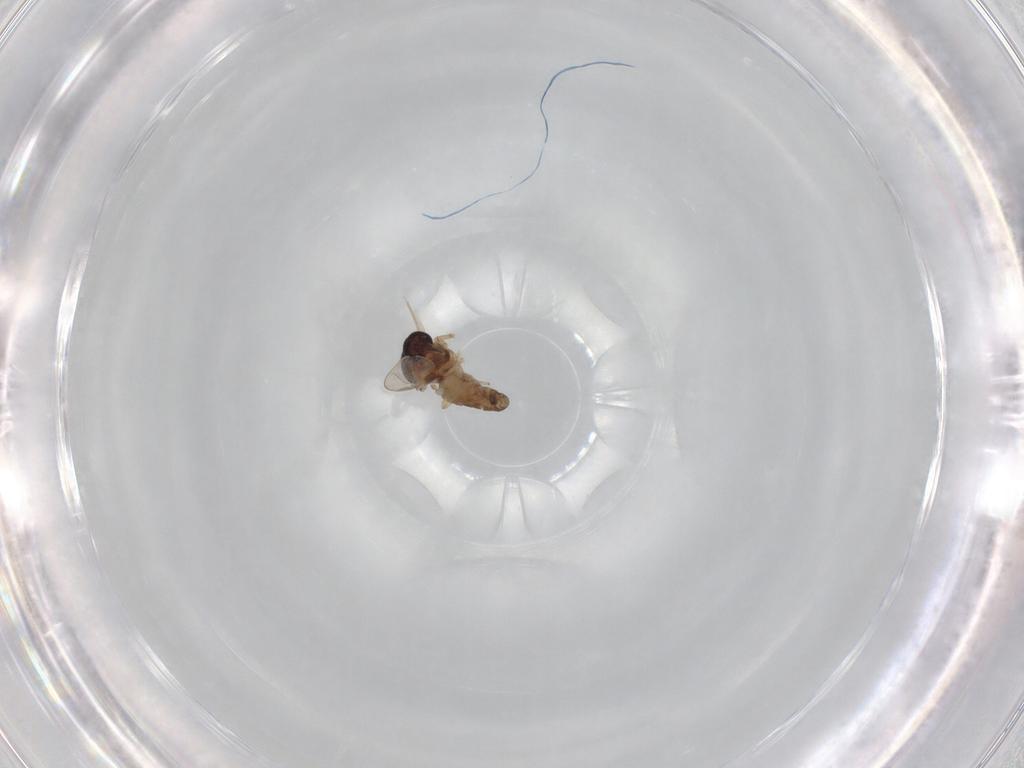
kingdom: Animalia
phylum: Arthropoda
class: Insecta
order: Diptera
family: Ceratopogonidae
